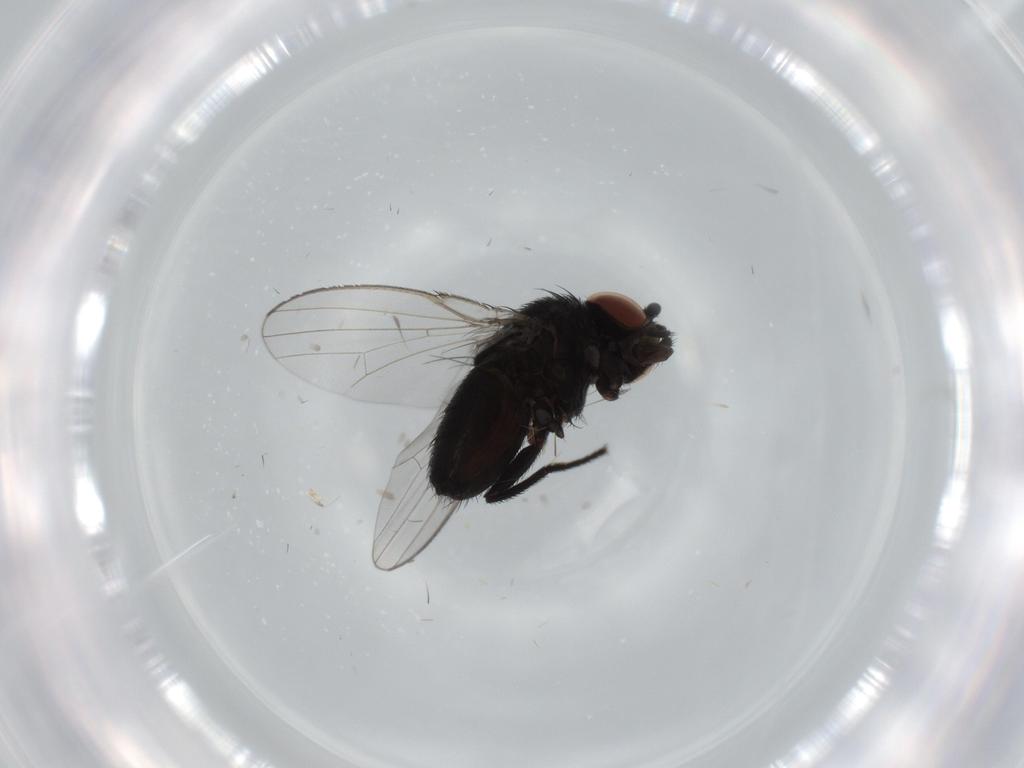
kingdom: Animalia
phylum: Arthropoda
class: Insecta
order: Diptera
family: Milichiidae
